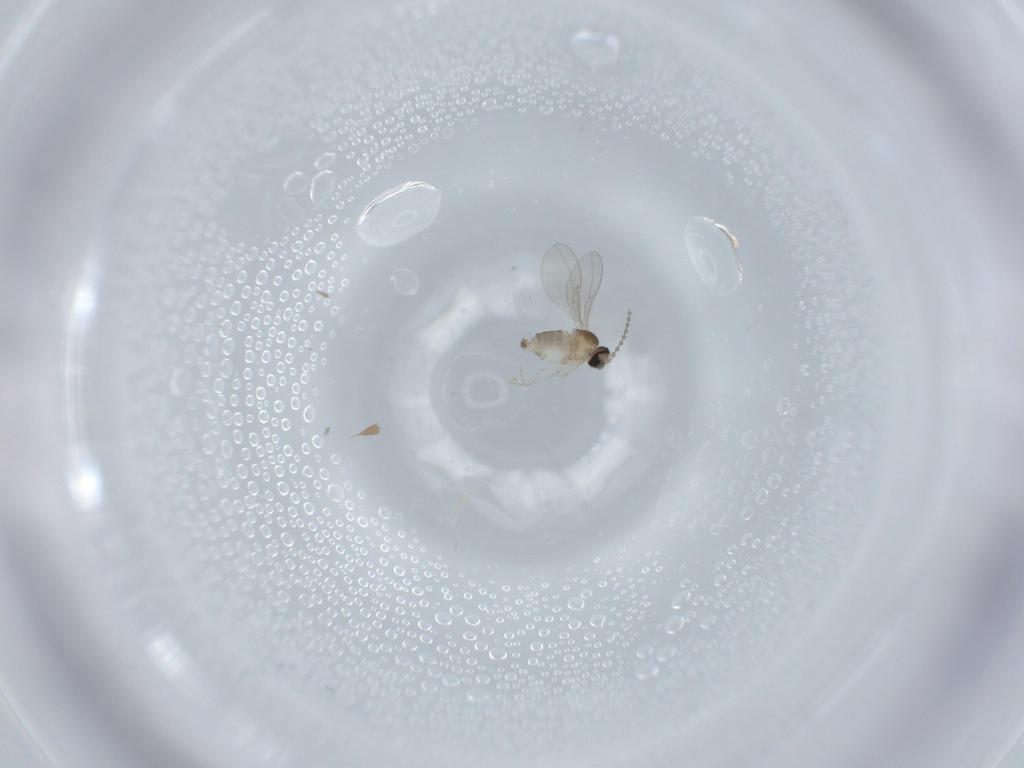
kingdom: Animalia
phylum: Arthropoda
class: Insecta
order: Diptera
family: Cecidomyiidae
